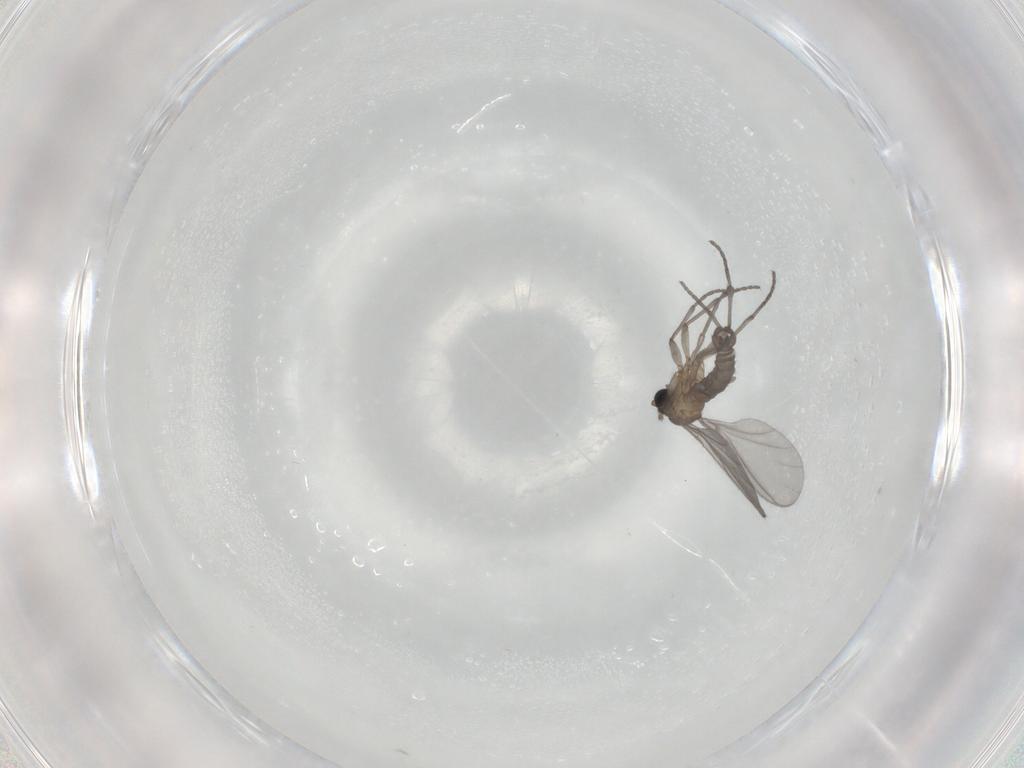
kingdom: Animalia
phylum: Arthropoda
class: Insecta
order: Diptera
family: Sciaridae
